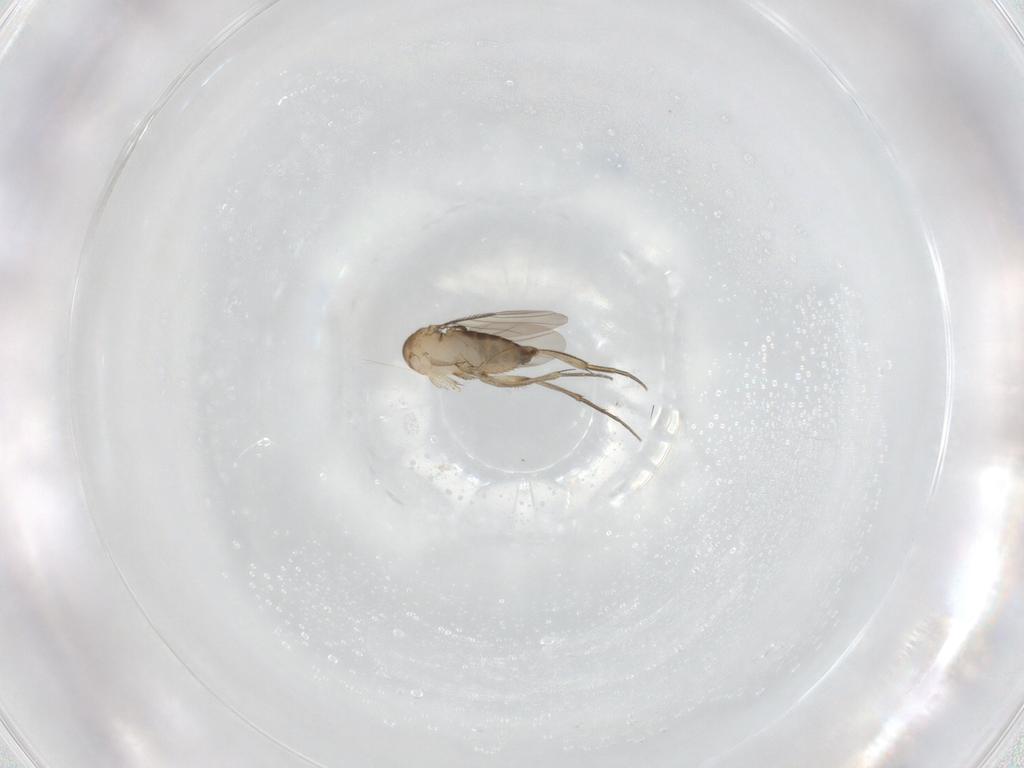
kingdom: Animalia
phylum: Arthropoda
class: Insecta
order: Diptera
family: Phoridae
